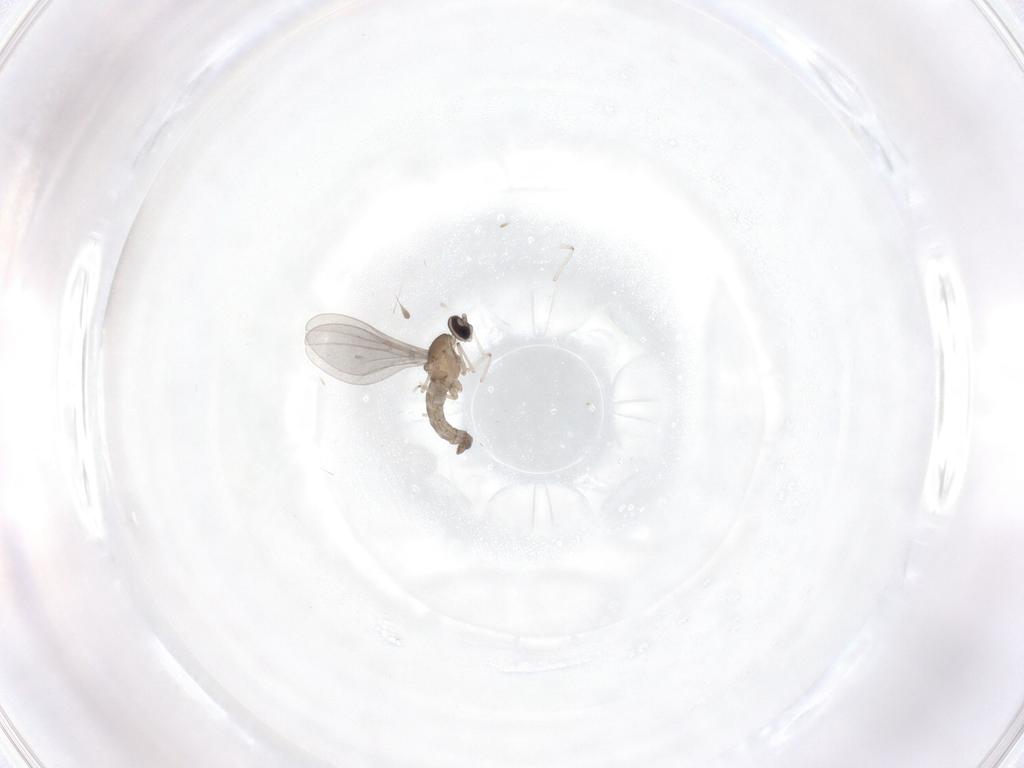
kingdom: Animalia
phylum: Arthropoda
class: Insecta
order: Diptera
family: Cecidomyiidae
